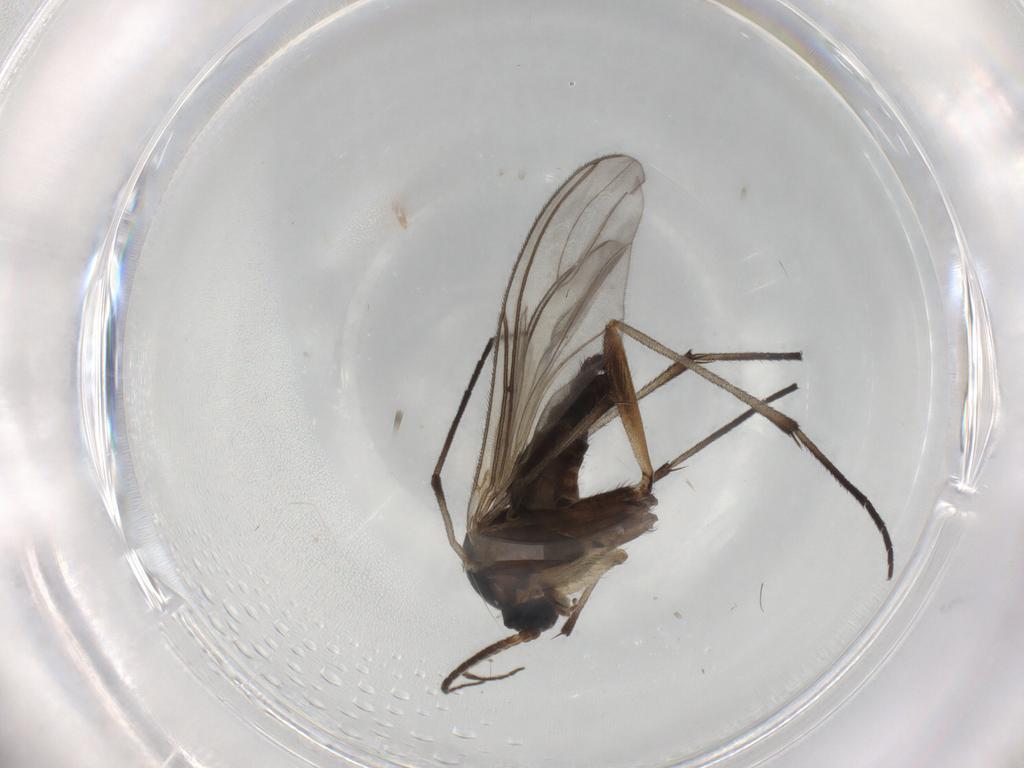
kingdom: Animalia
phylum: Arthropoda
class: Insecta
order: Diptera
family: Sciaridae
